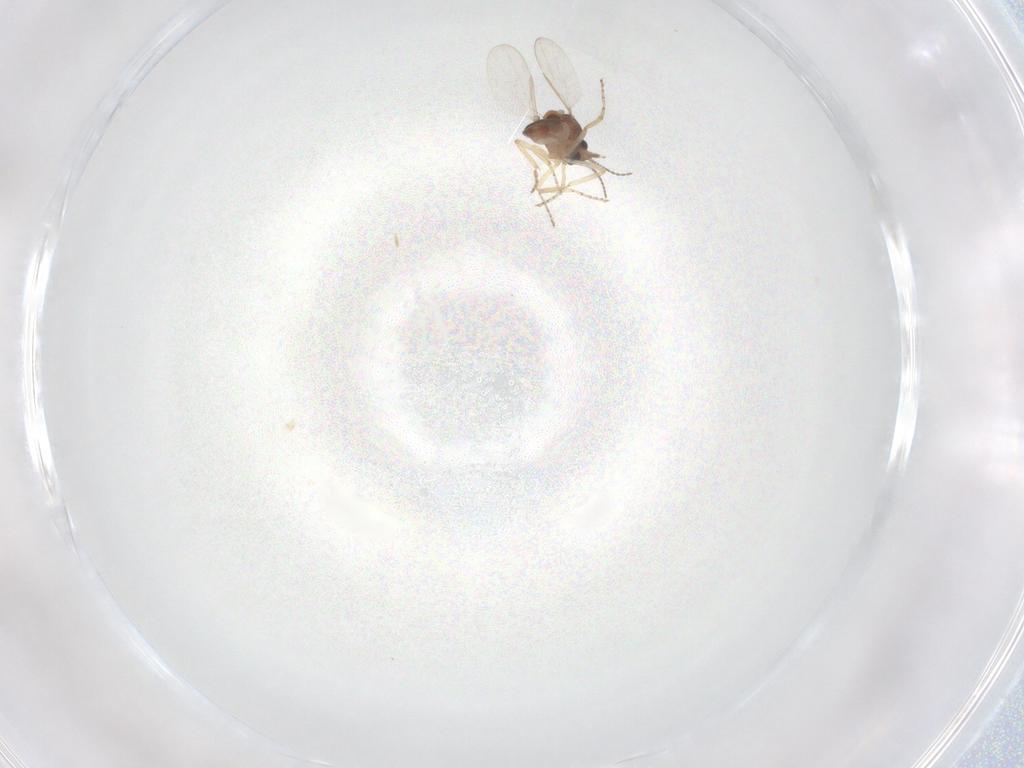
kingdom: Animalia
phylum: Arthropoda
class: Insecta
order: Diptera
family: Ceratopogonidae
